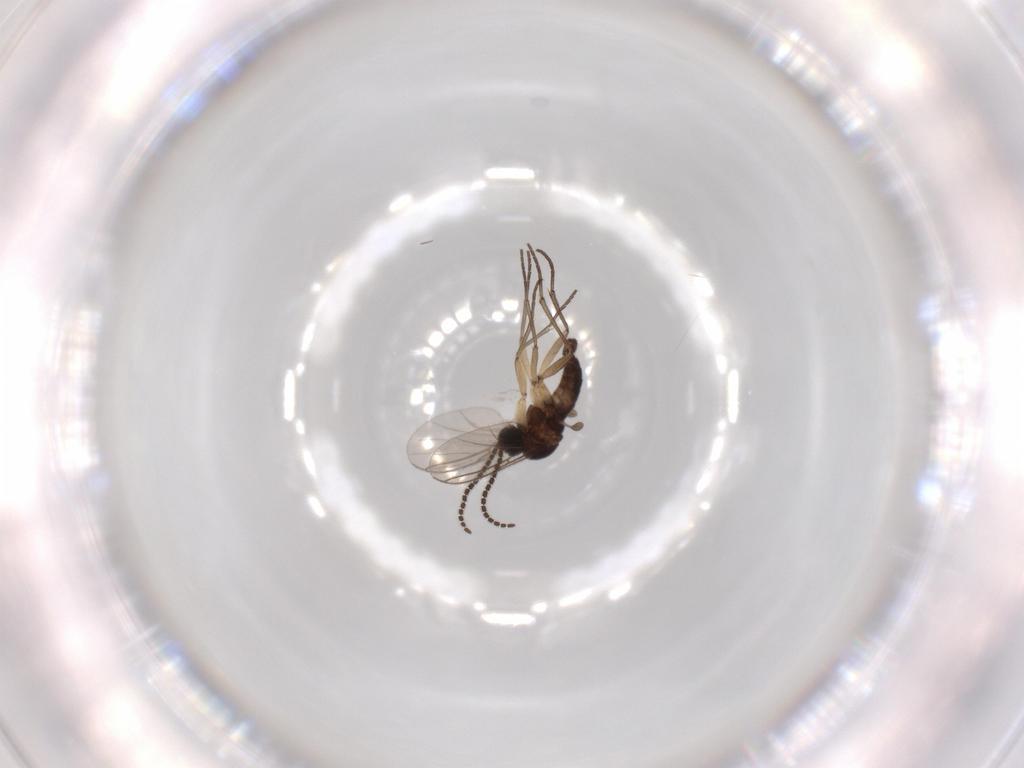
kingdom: Animalia
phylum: Arthropoda
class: Insecta
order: Diptera
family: Sciaridae
